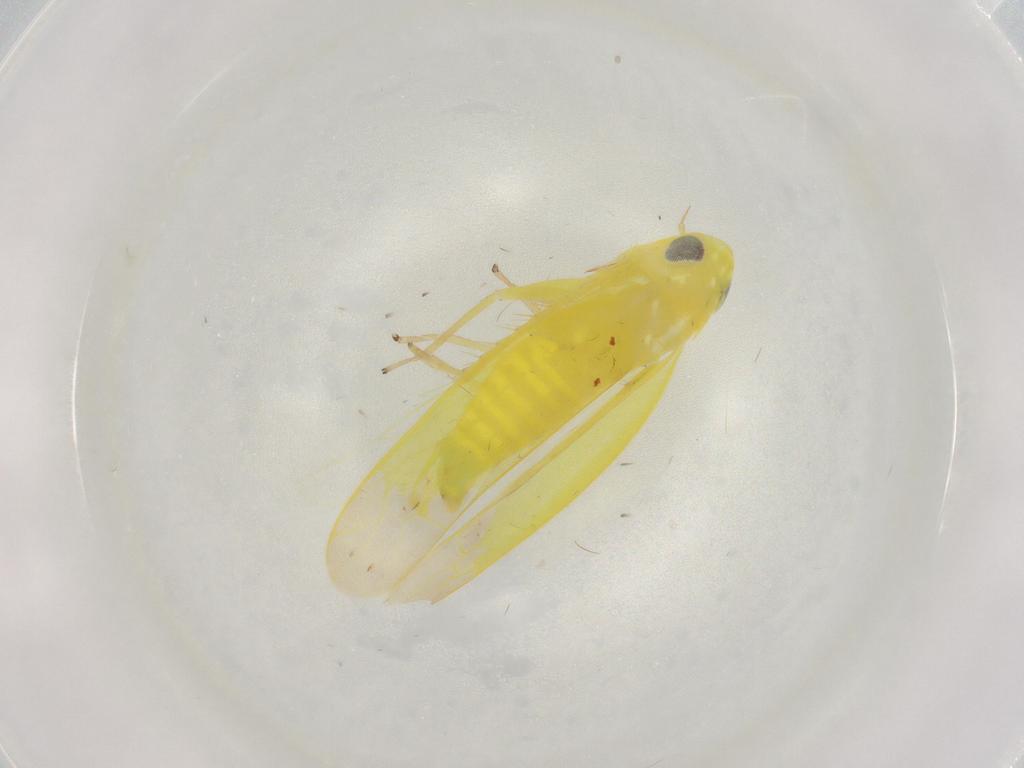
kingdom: Animalia
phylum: Arthropoda
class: Insecta
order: Hemiptera
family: Cicadellidae
